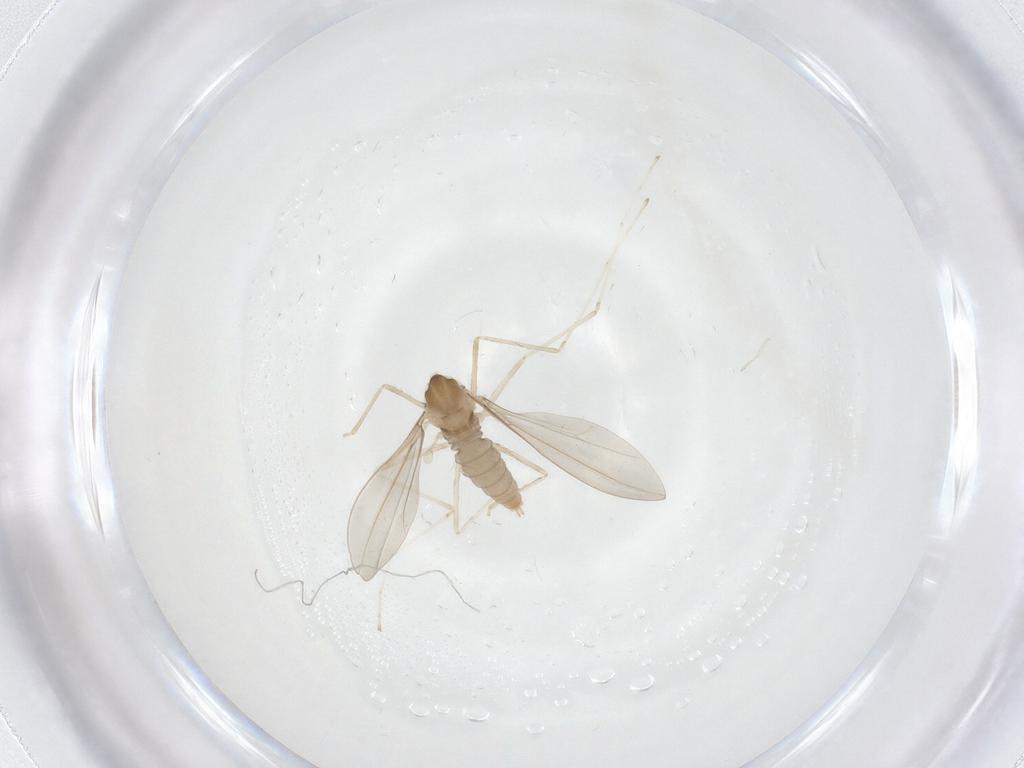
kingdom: Animalia
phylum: Arthropoda
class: Insecta
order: Diptera
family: Cecidomyiidae
